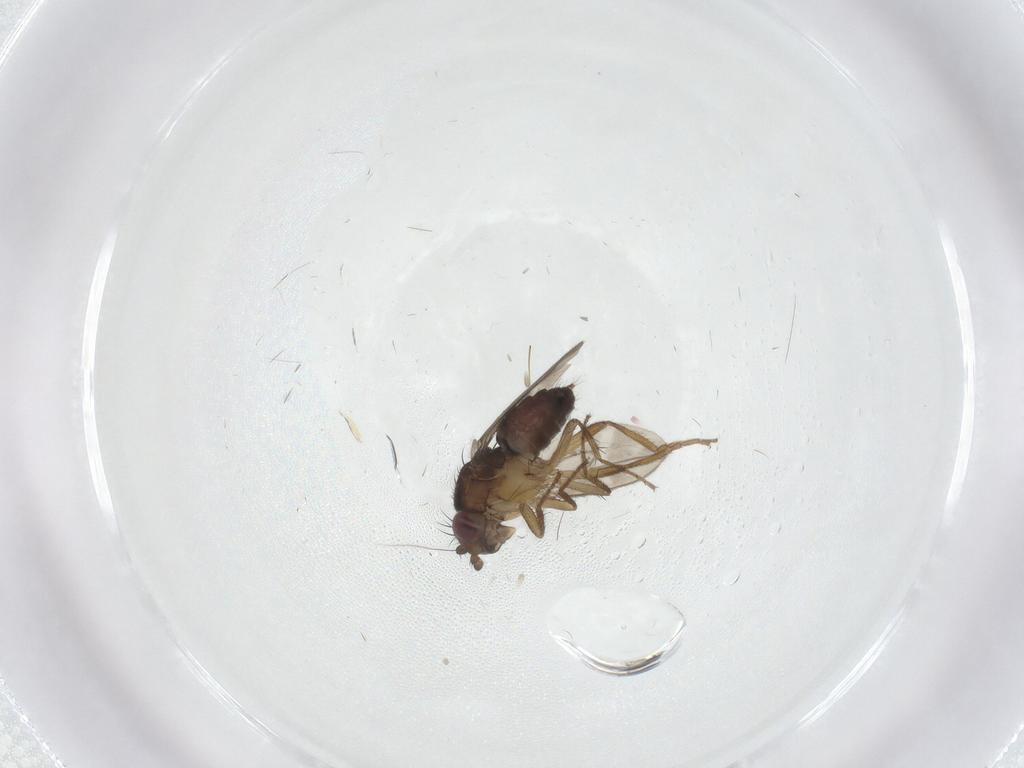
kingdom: Animalia
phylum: Arthropoda
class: Insecta
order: Diptera
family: Sphaeroceridae
